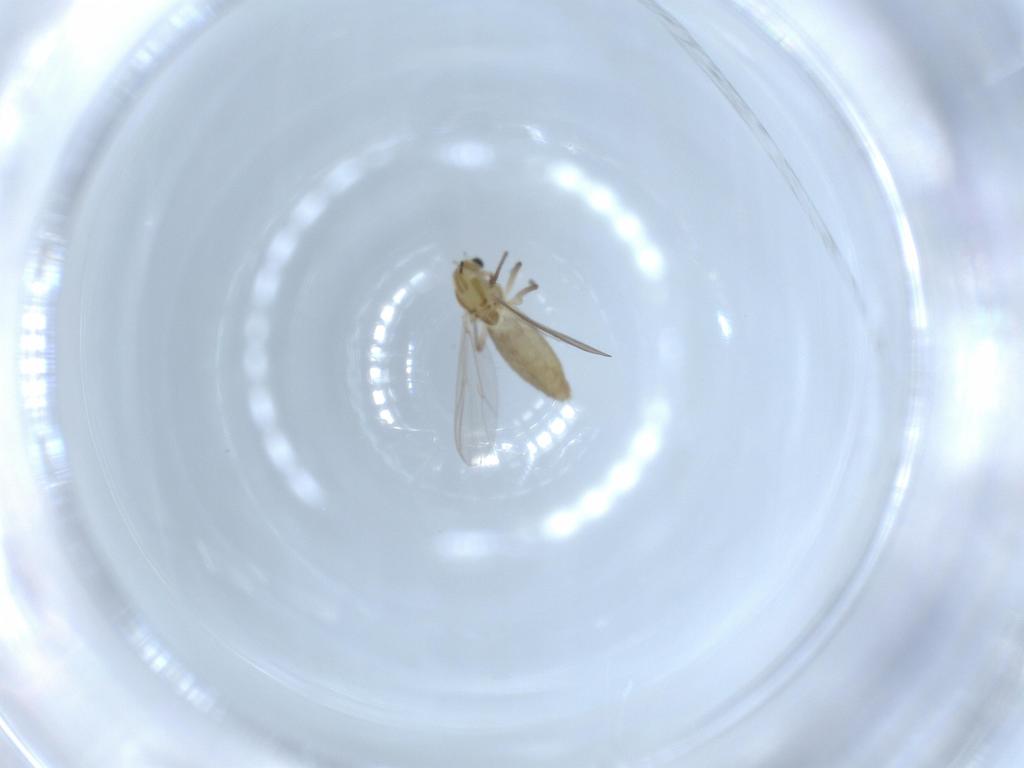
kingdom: Animalia
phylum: Arthropoda
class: Insecta
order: Diptera
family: Chironomidae
